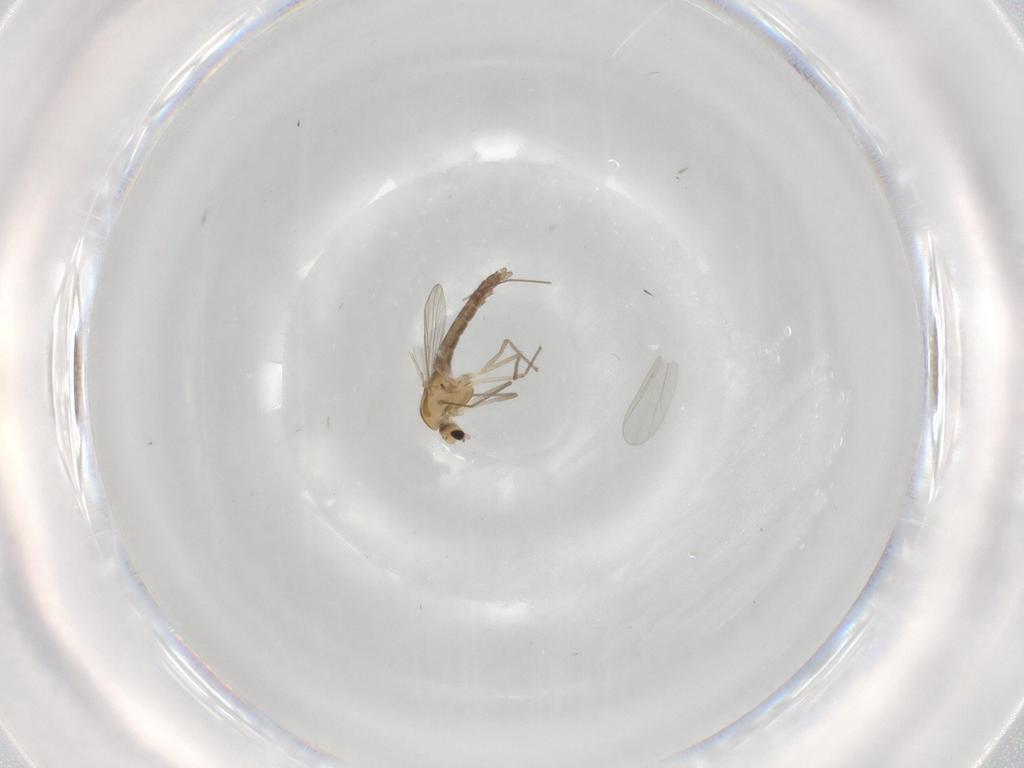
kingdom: Animalia
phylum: Arthropoda
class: Insecta
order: Diptera
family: Chironomidae
